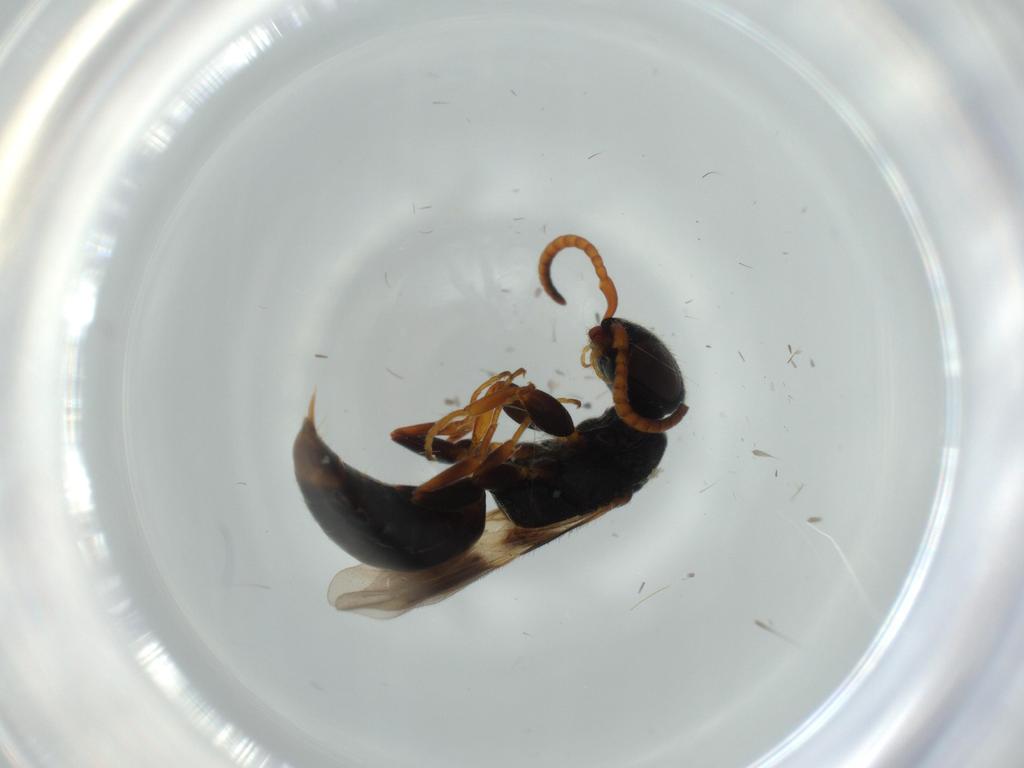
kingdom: Animalia
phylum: Arthropoda
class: Insecta
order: Hymenoptera
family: Bethylidae
